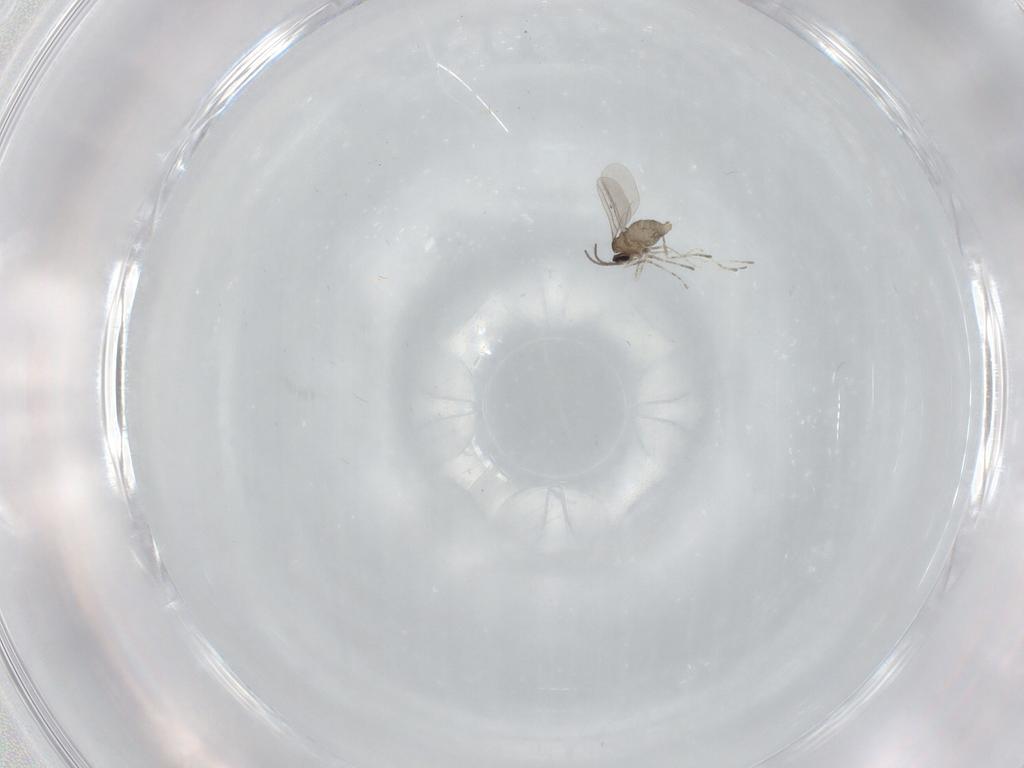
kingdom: Animalia
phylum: Arthropoda
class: Insecta
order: Diptera
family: Cecidomyiidae
